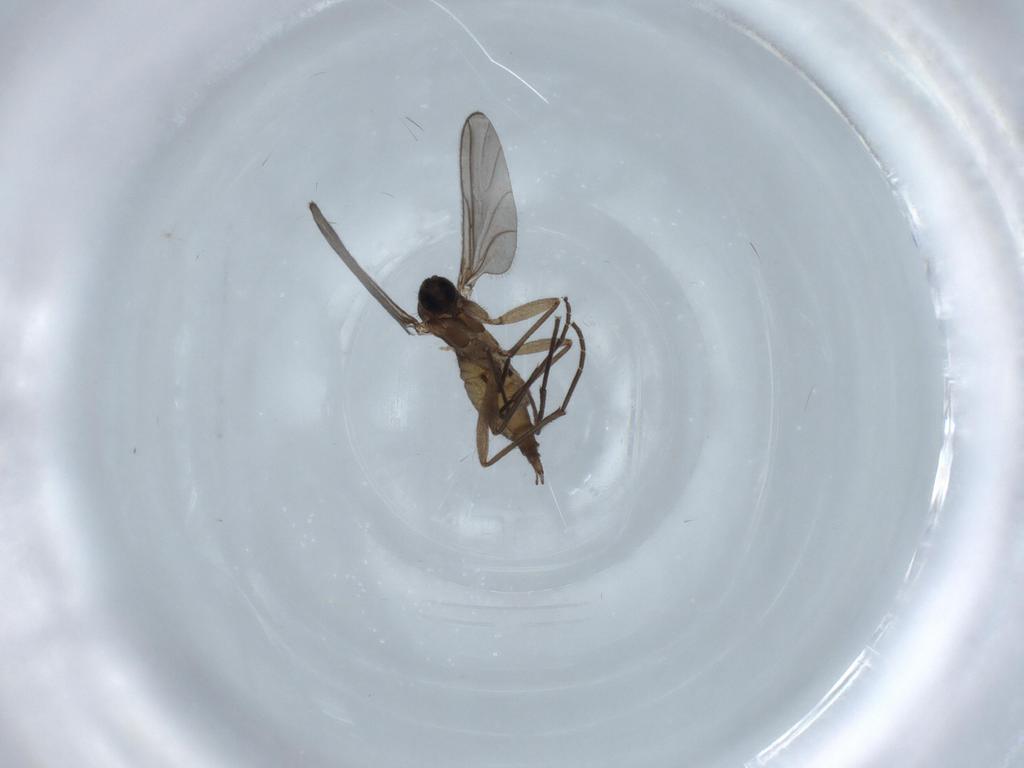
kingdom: Animalia
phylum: Arthropoda
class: Insecta
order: Diptera
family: Sciaridae
